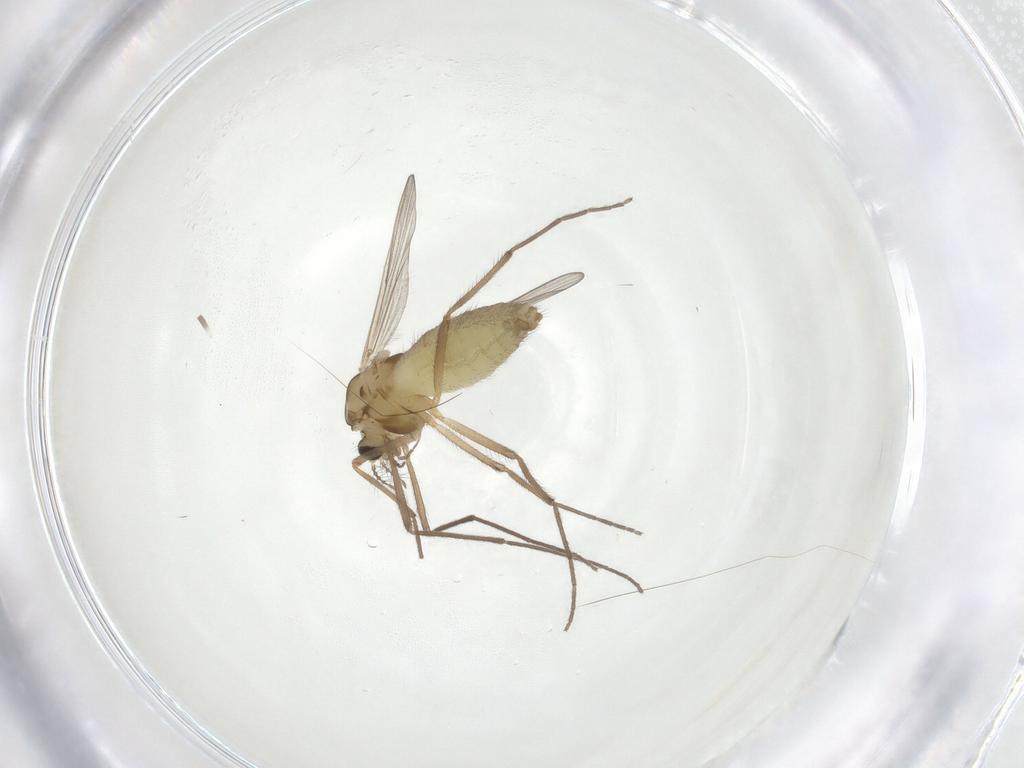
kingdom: Animalia
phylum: Arthropoda
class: Insecta
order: Diptera
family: Cecidomyiidae
